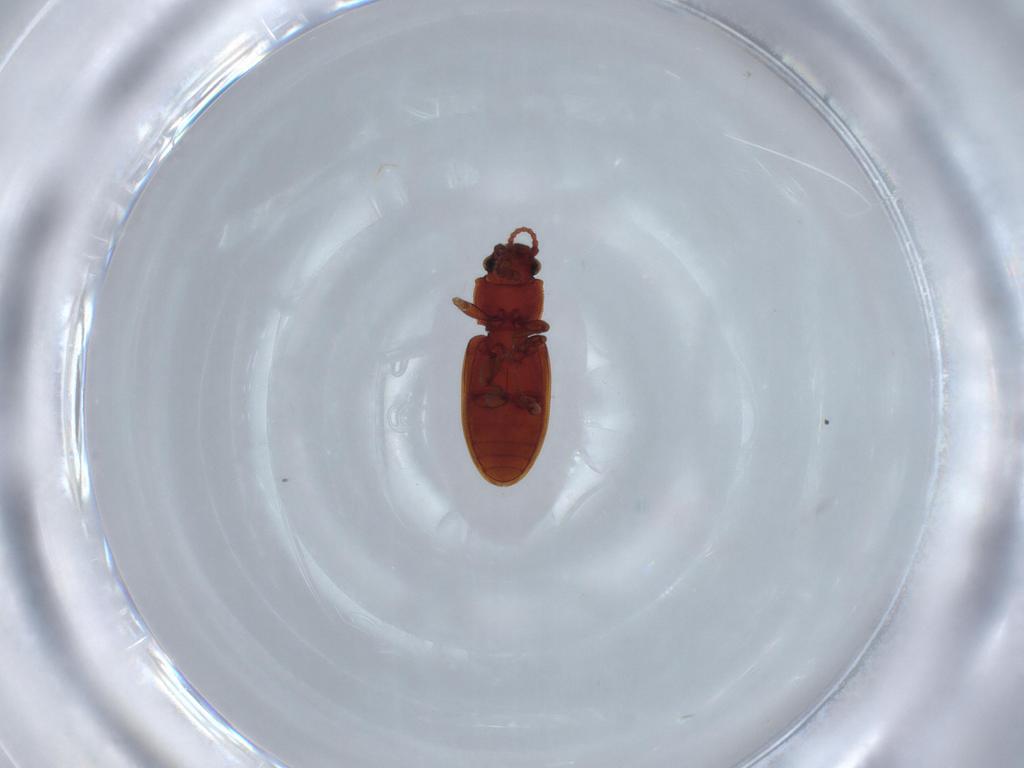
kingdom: Animalia
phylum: Arthropoda
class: Insecta
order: Coleoptera
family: Silvanidae
